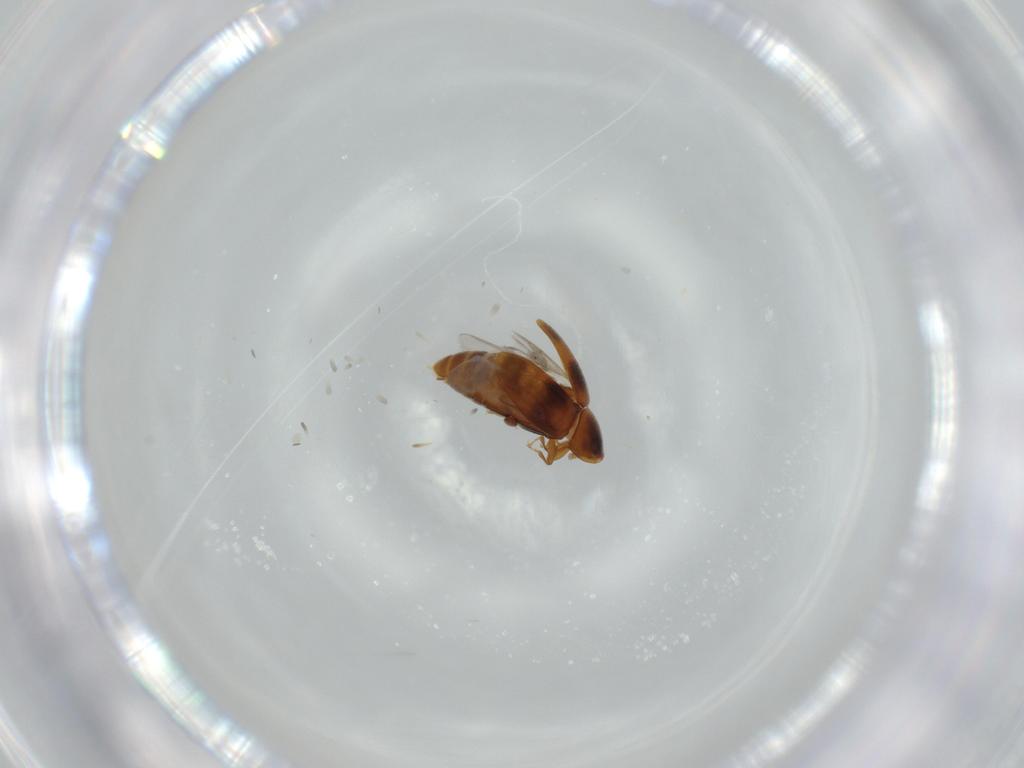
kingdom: Animalia
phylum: Arthropoda
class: Insecta
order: Coleoptera
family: Corylophidae
